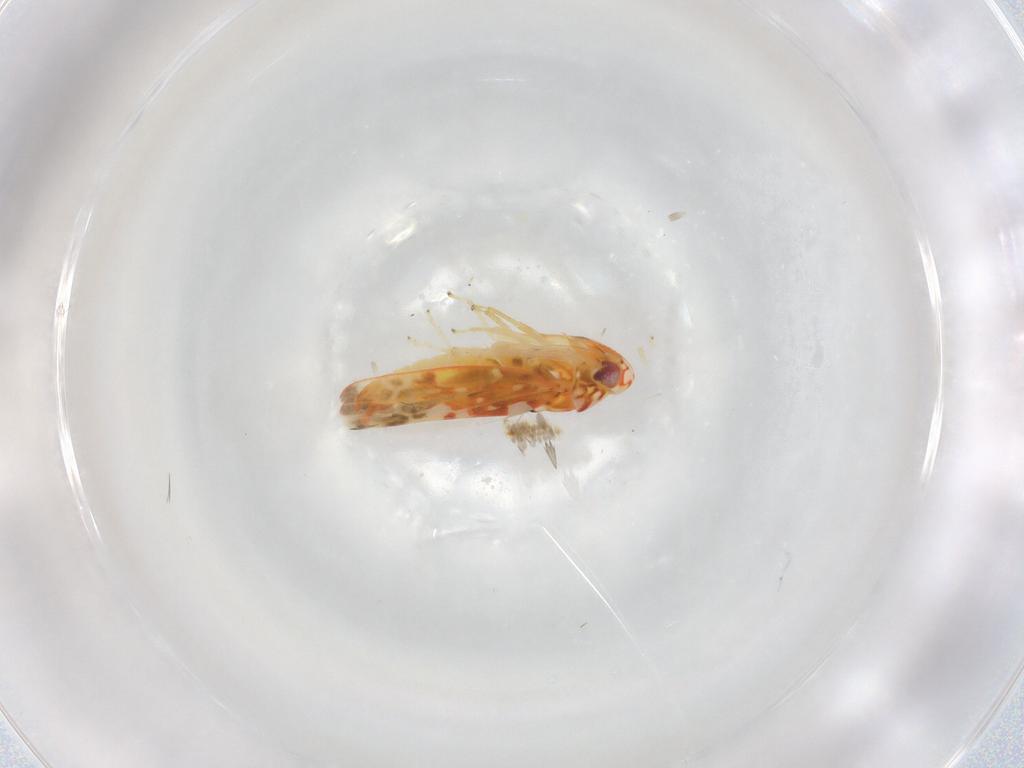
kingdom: Animalia
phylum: Arthropoda
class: Insecta
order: Hemiptera
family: Cicadellidae
